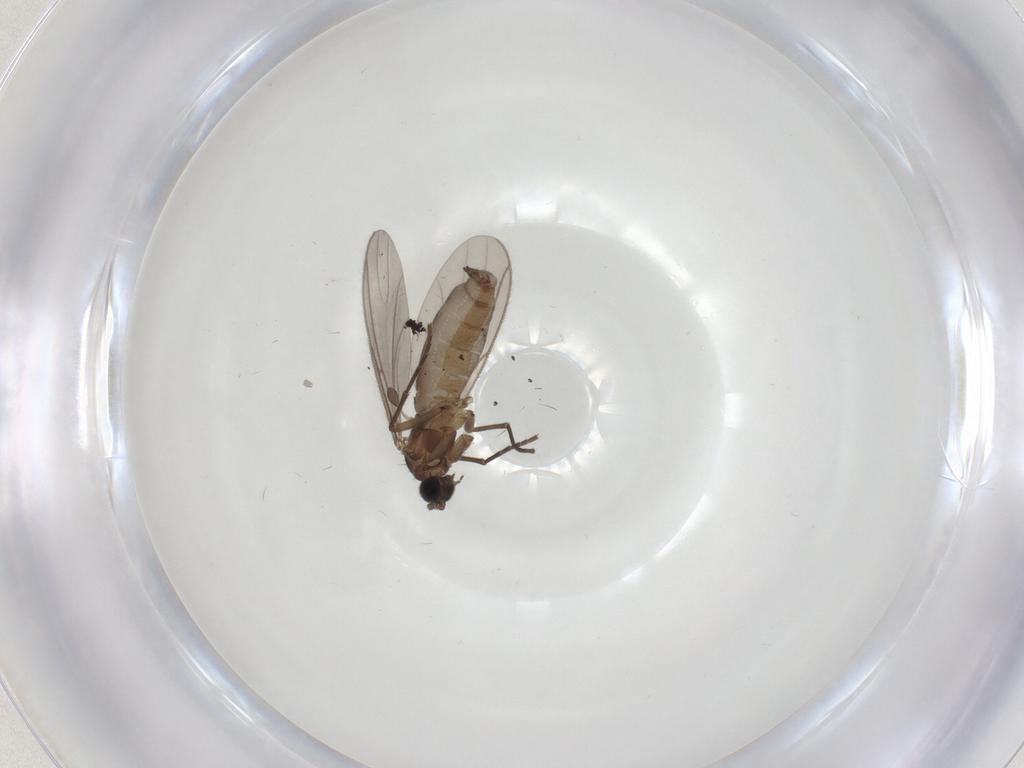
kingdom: Animalia
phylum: Arthropoda
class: Insecta
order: Diptera
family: Sciaridae
